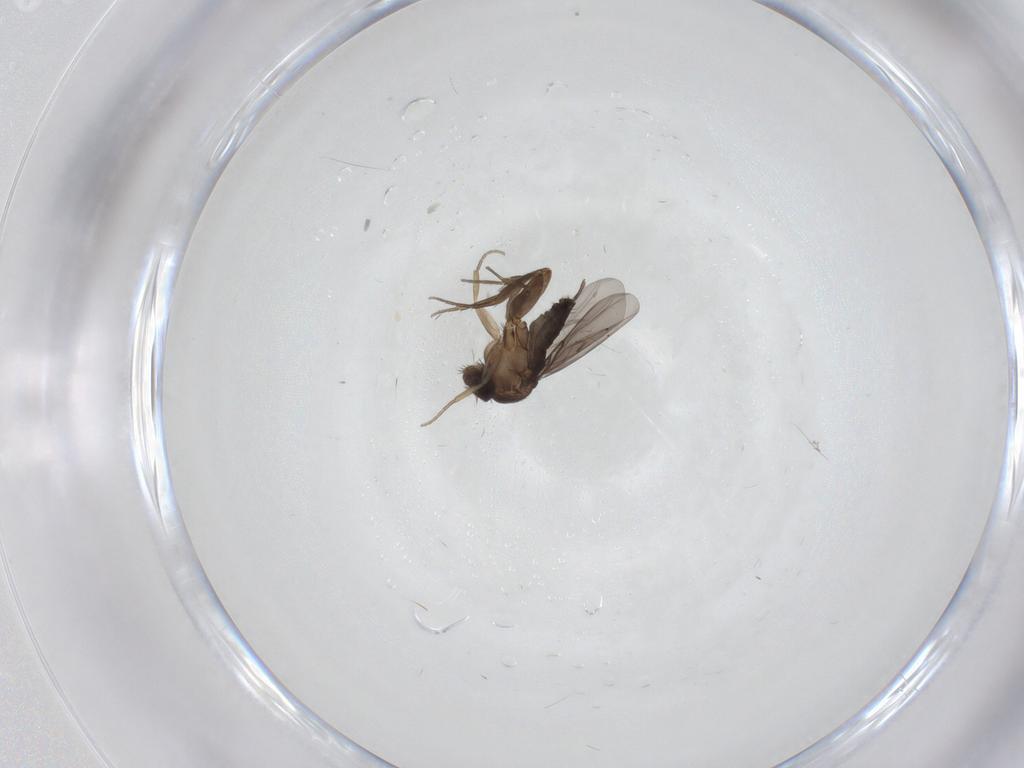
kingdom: Animalia
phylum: Arthropoda
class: Insecta
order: Diptera
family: Phoridae
